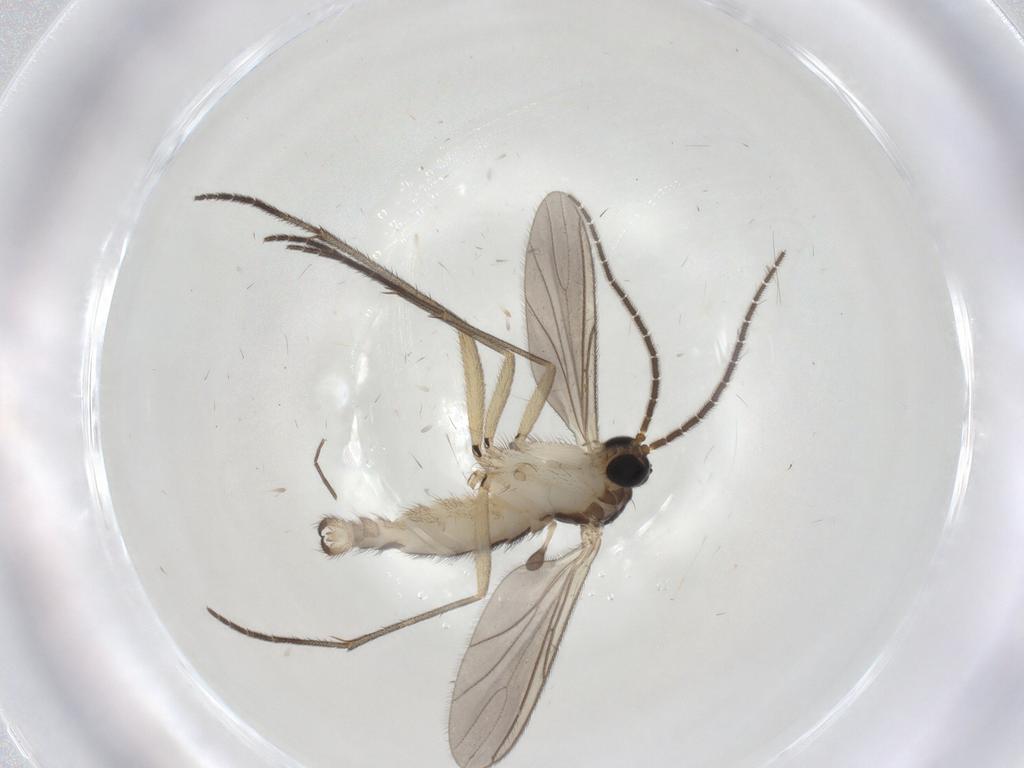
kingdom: Animalia
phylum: Arthropoda
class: Insecta
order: Diptera
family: Sciaridae
